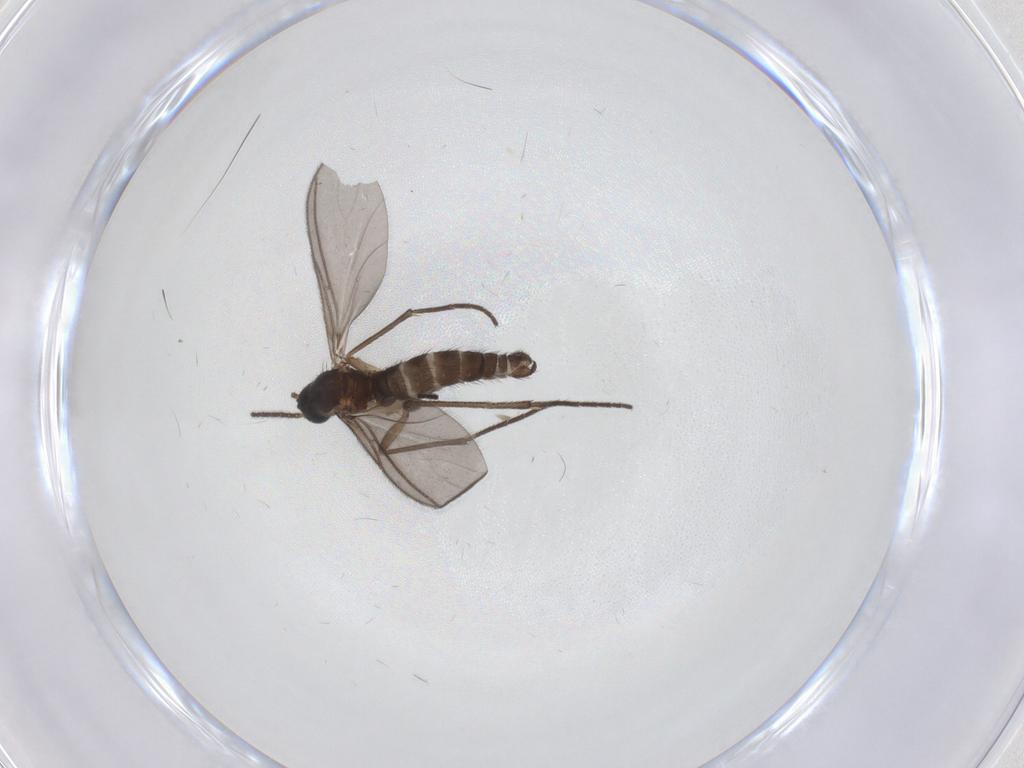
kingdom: Animalia
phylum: Arthropoda
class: Insecta
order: Diptera
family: Sciaridae
